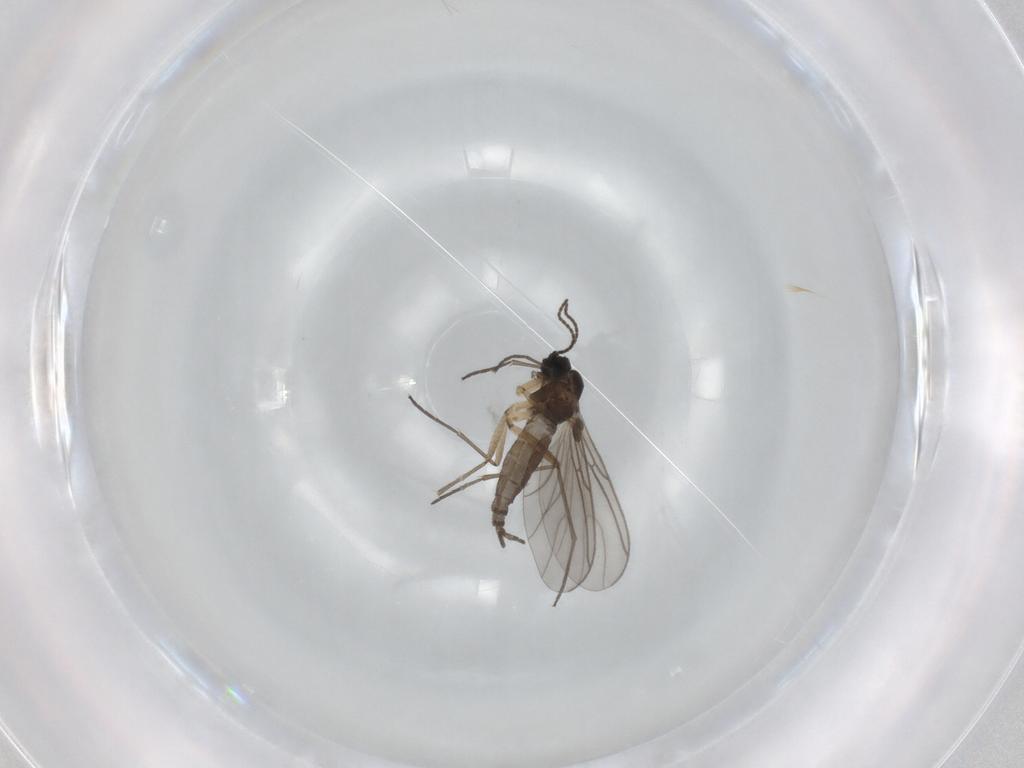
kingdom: Animalia
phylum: Arthropoda
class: Insecta
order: Diptera
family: Sciaridae
